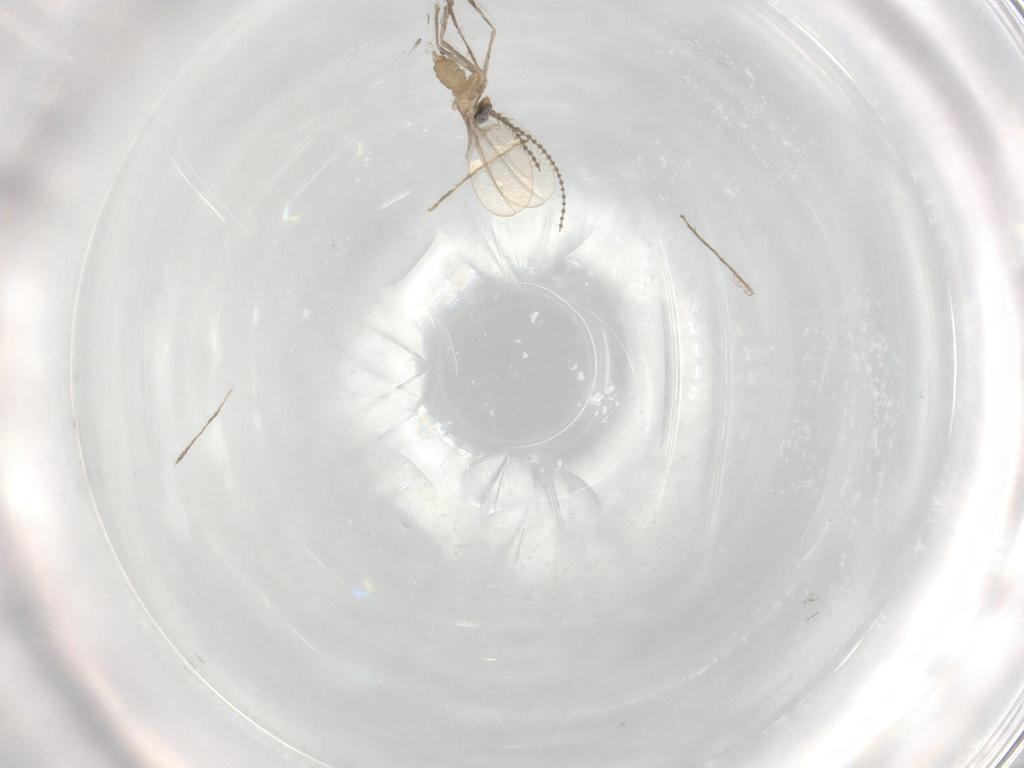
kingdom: Animalia
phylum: Arthropoda
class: Insecta
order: Diptera
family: Cecidomyiidae
